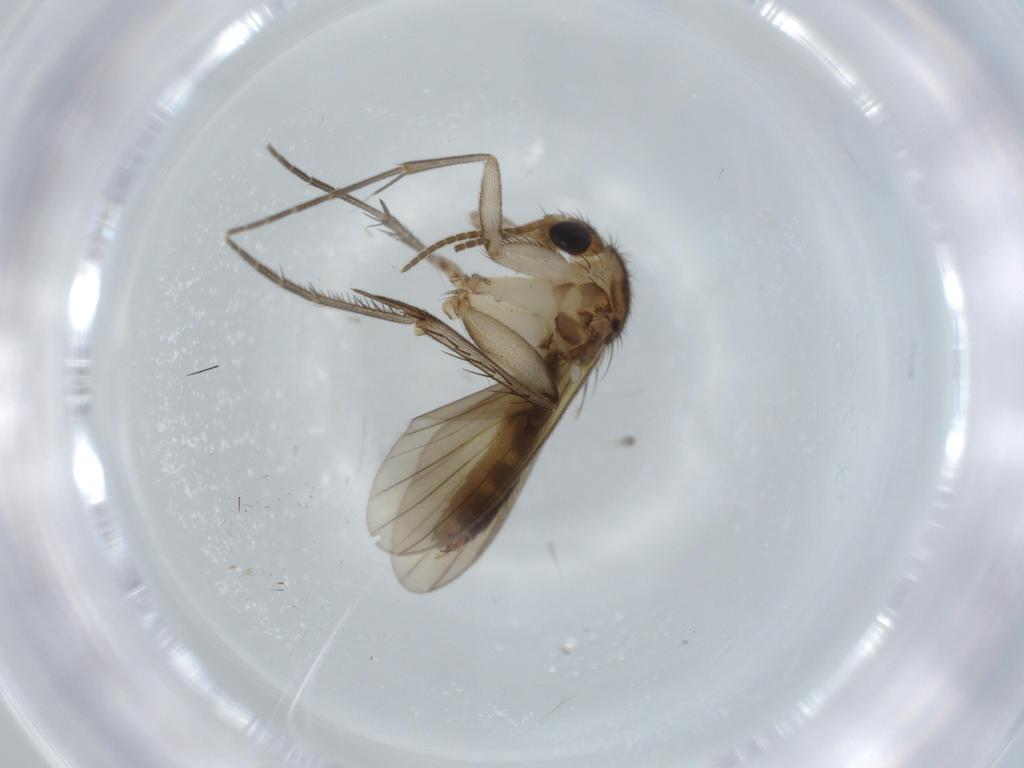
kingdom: Animalia
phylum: Arthropoda
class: Insecta
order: Diptera
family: Mycetophilidae
